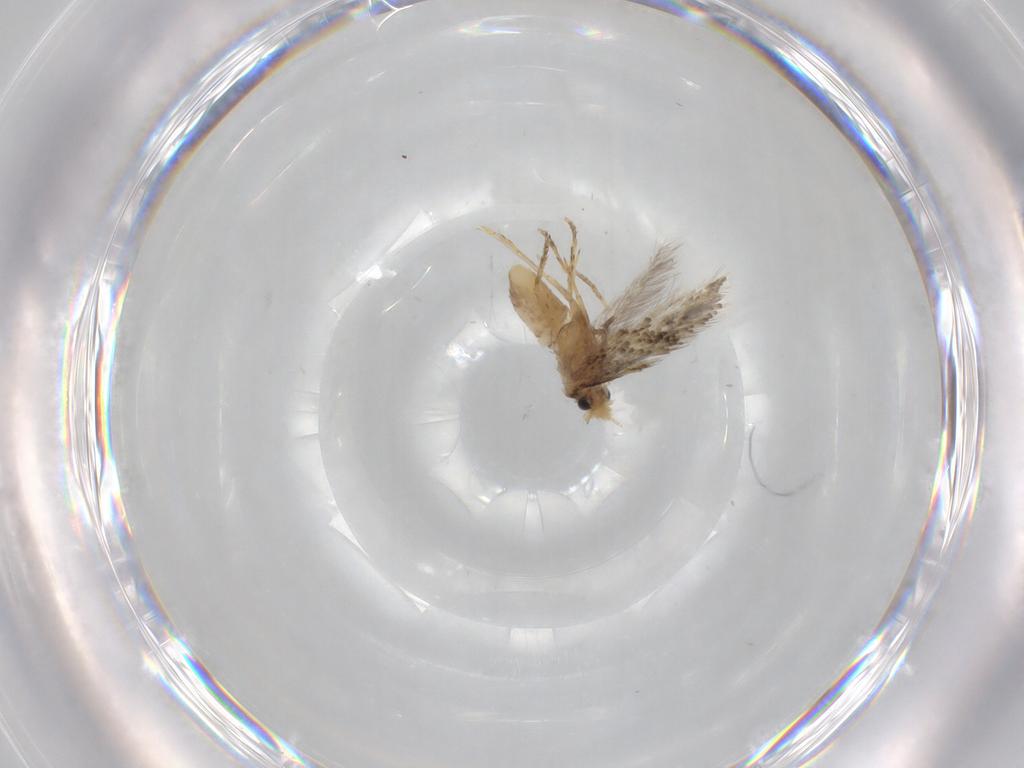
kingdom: Animalia
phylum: Arthropoda
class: Insecta
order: Lepidoptera
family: Nepticulidae
